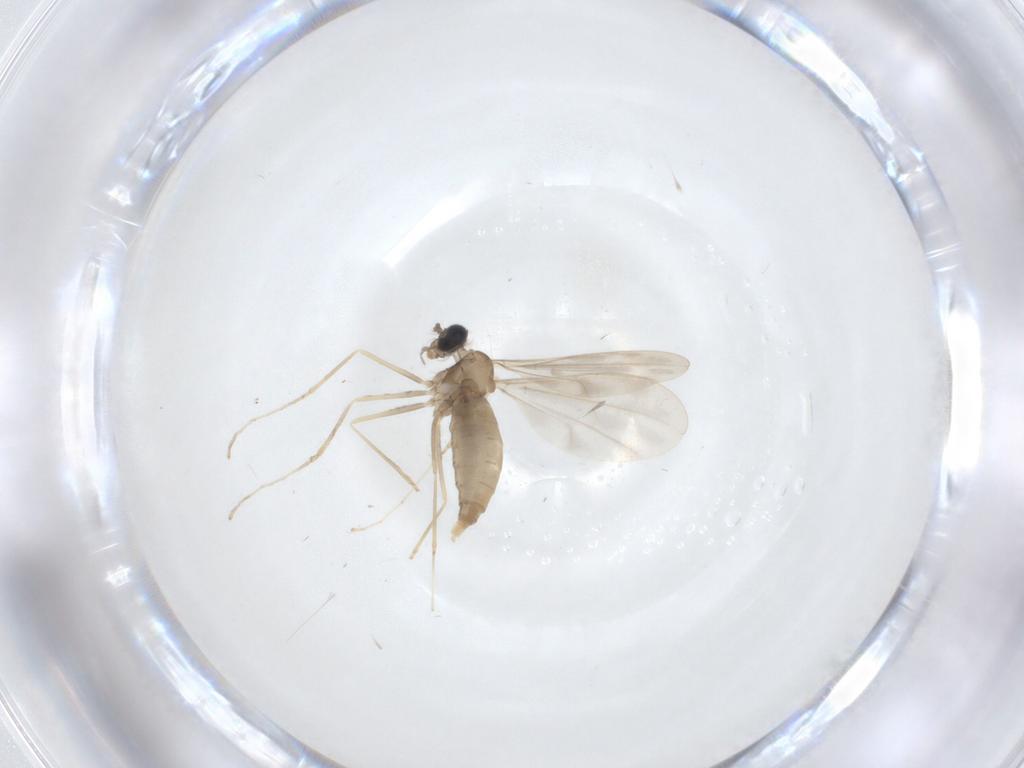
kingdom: Animalia
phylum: Arthropoda
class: Insecta
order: Diptera
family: Cecidomyiidae
